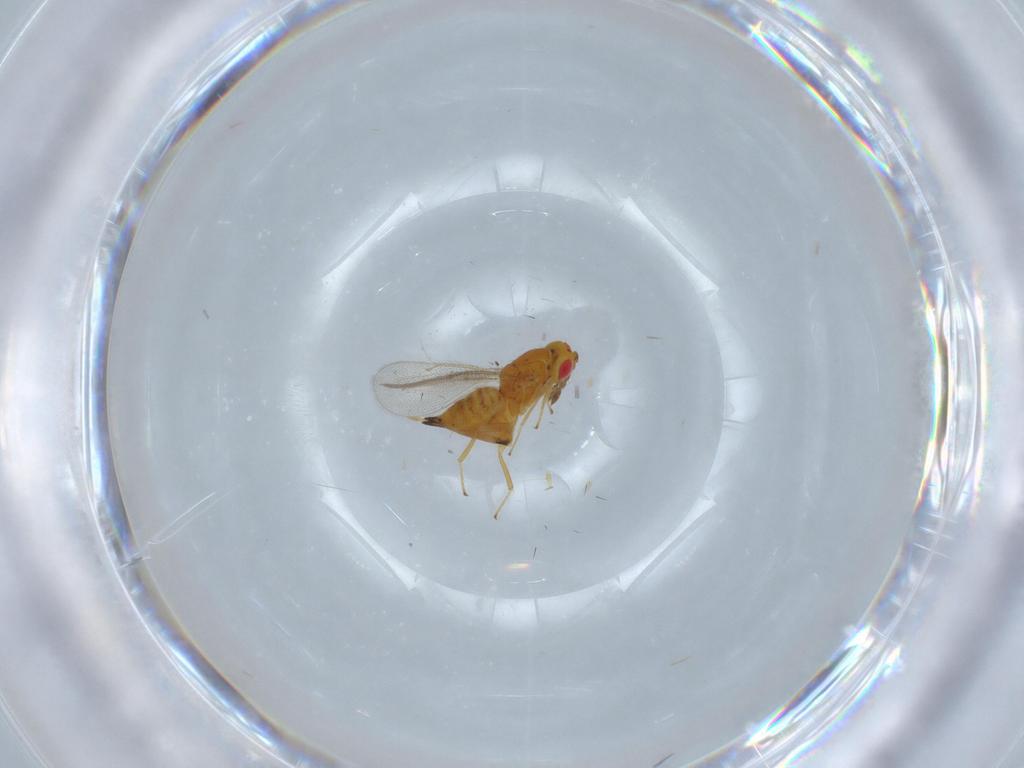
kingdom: Animalia
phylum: Arthropoda
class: Insecta
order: Hymenoptera
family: Eulophidae
